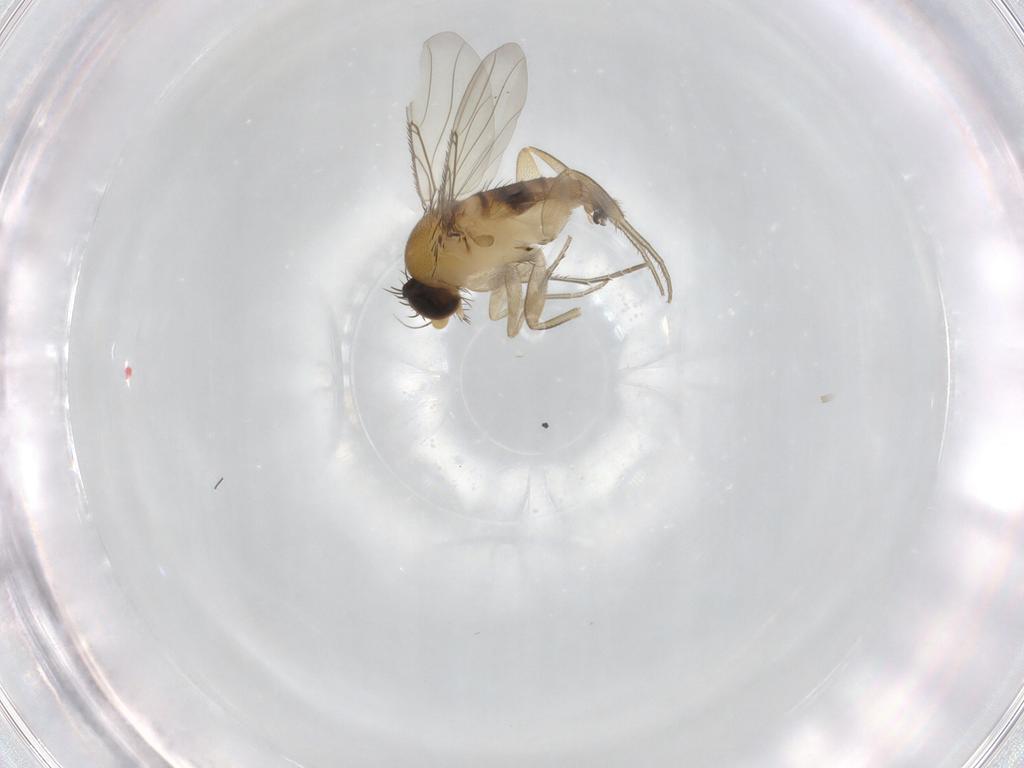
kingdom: Animalia
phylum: Arthropoda
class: Insecta
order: Diptera
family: Phoridae
